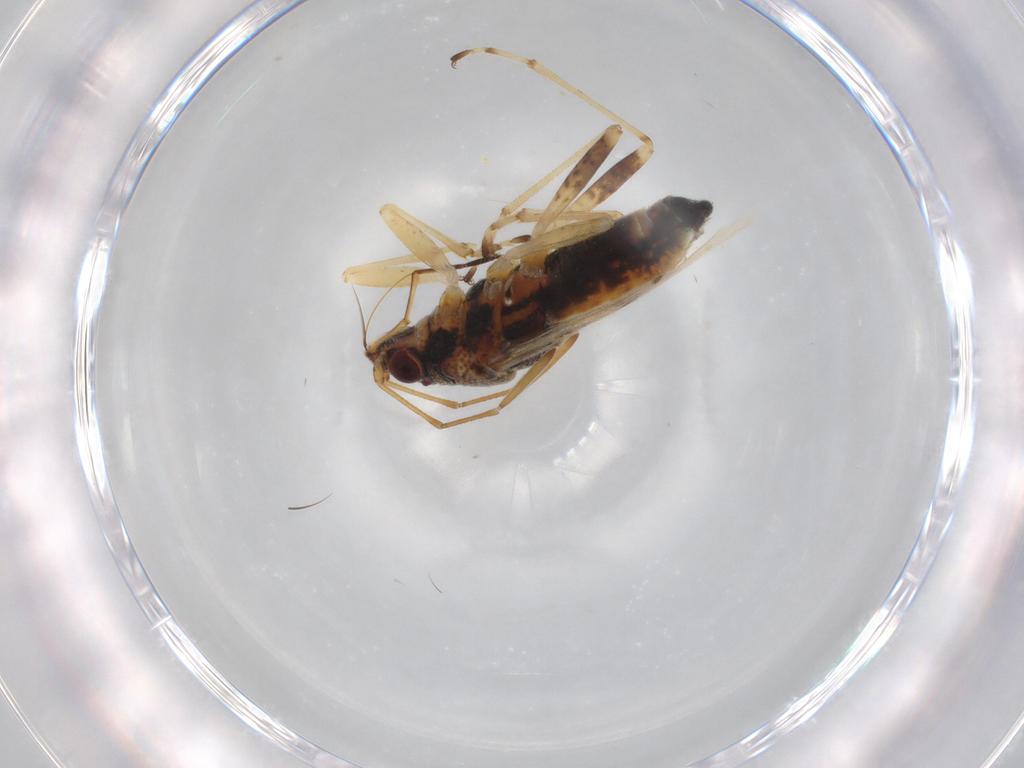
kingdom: Animalia
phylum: Arthropoda
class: Insecta
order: Hemiptera
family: Lygaeidae
